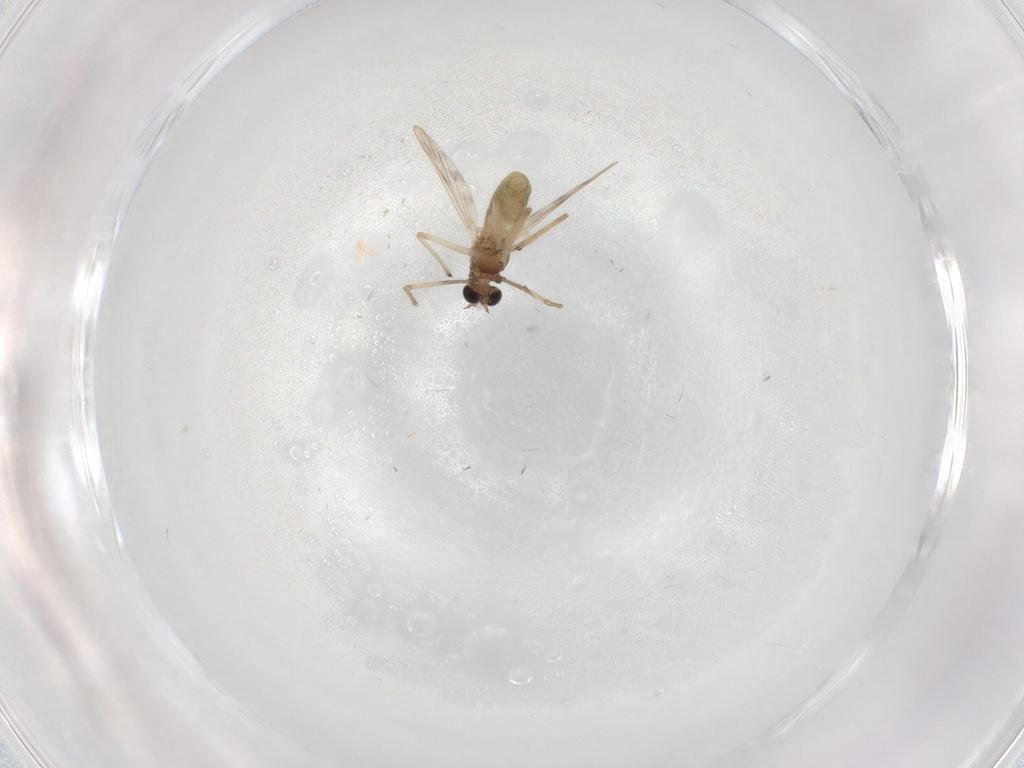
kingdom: Animalia
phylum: Arthropoda
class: Insecta
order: Diptera
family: Chironomidae
